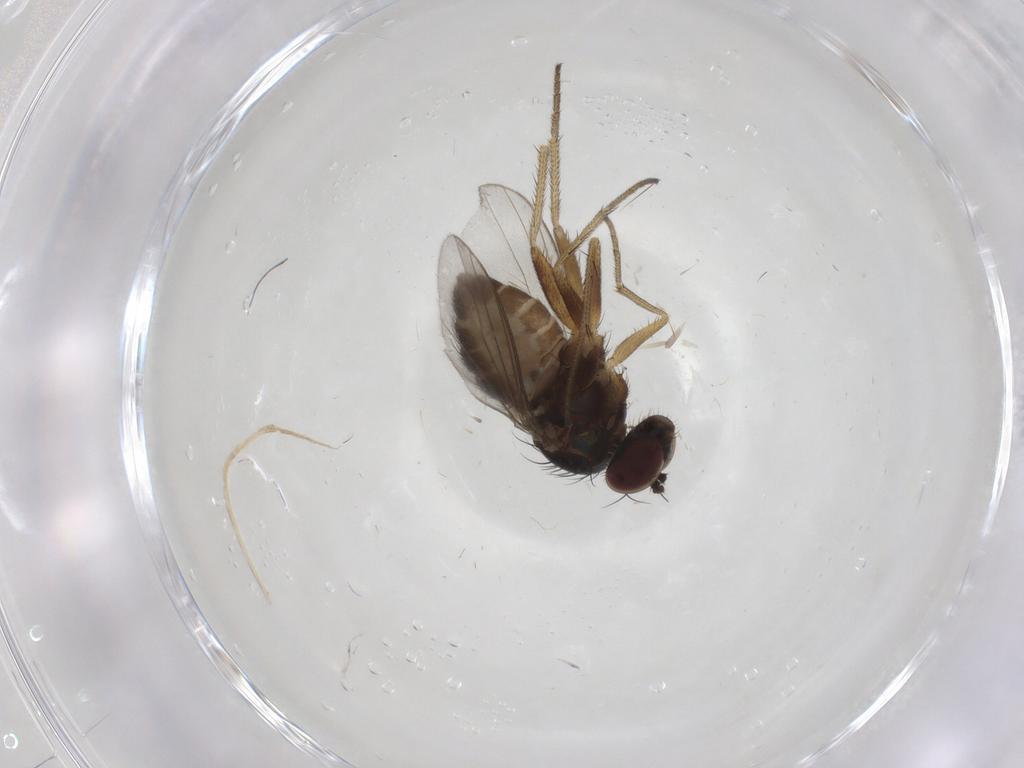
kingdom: Animalia
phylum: Arthropoda
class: Insecta
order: Diptera
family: Dolichopodidae
